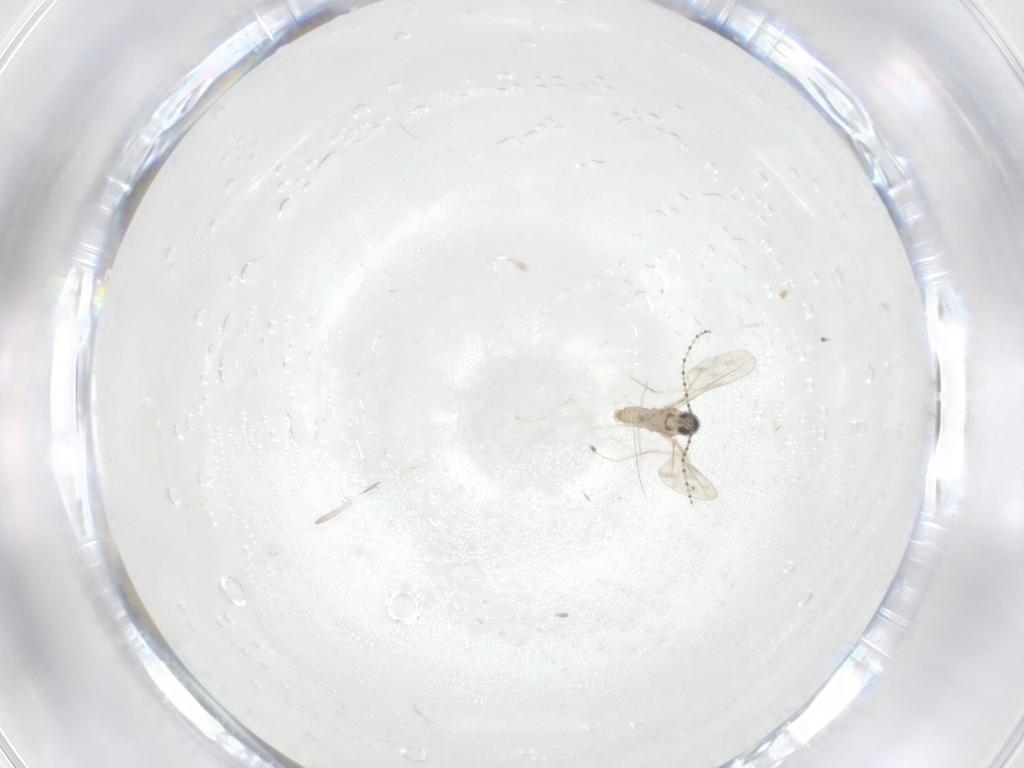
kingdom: Animalia
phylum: Arthropoda
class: Insecta
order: Diptera
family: Cecidomyiidae
